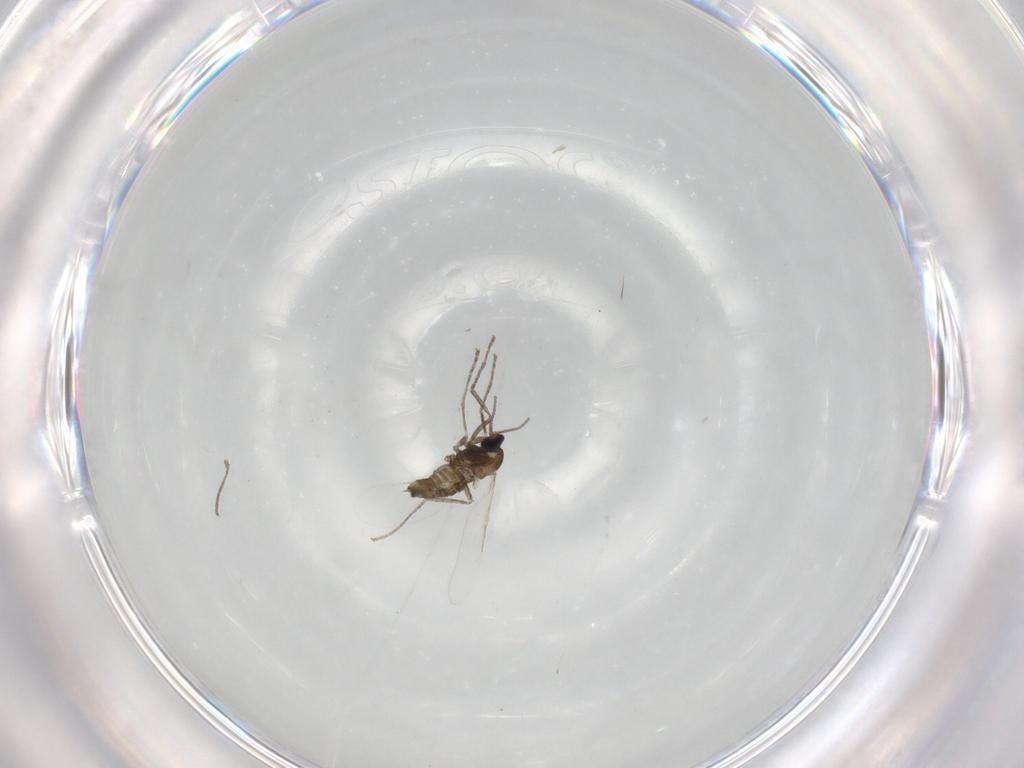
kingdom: Animalia
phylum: Arthropoda
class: Insecta
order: Diptera
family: Cecidomyiidae
